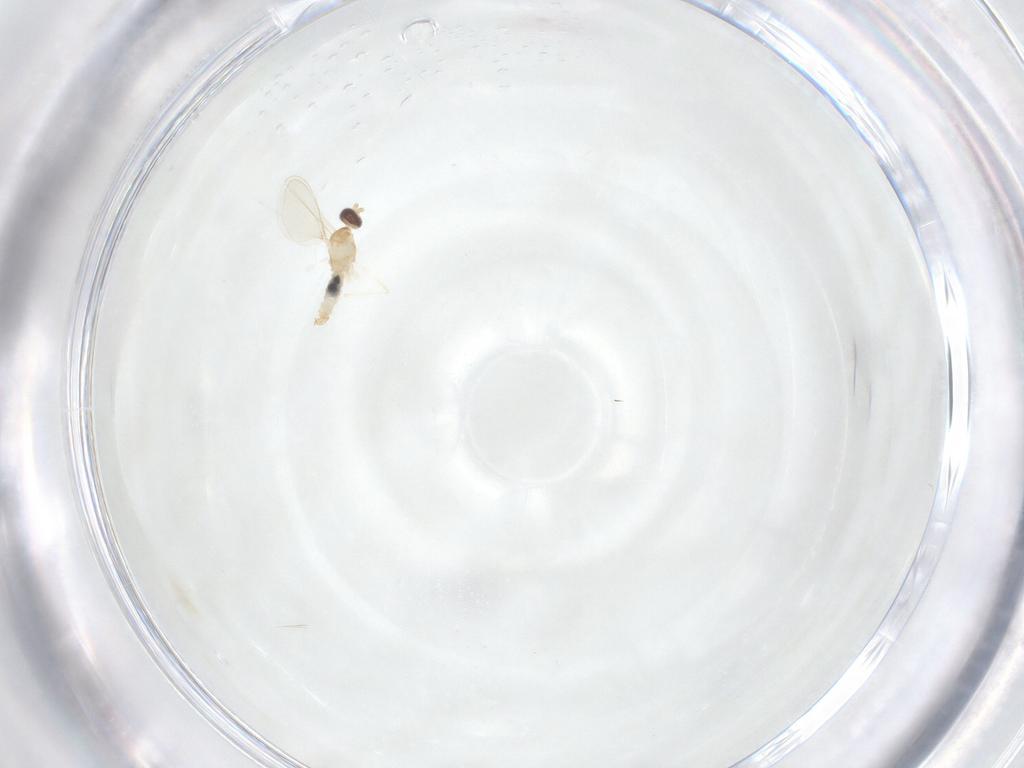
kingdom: Animalia
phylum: Arthropoda
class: Insecta
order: Diptera
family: Cecidomyiidae
